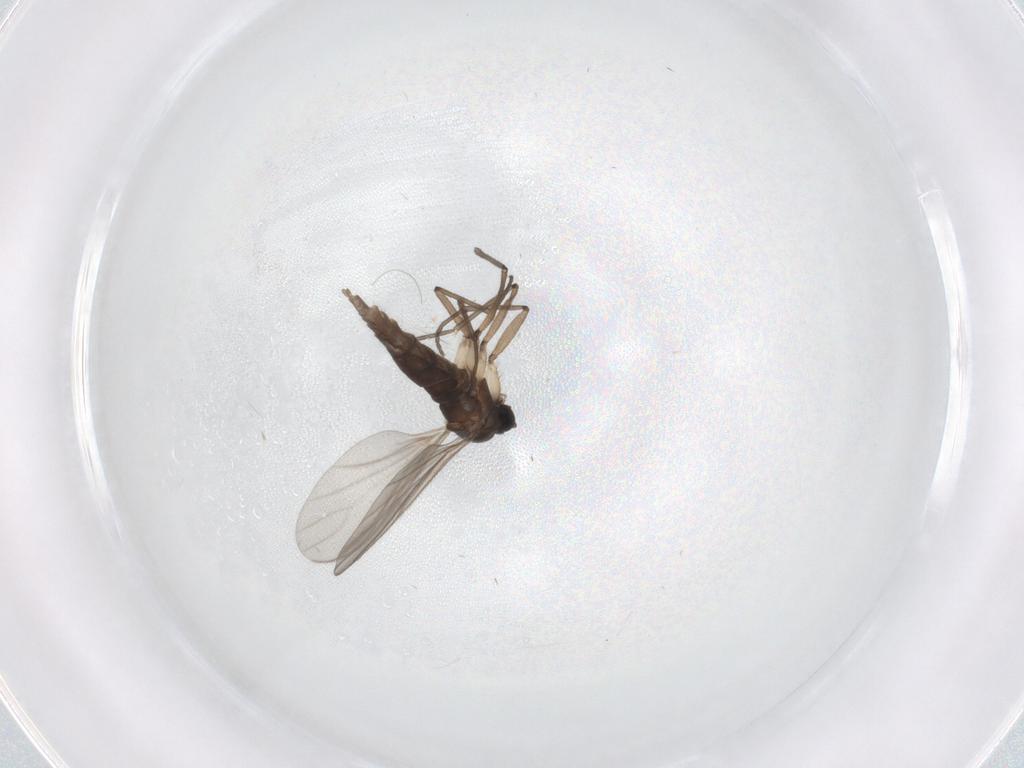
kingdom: Animalia
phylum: Arthropoda
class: Insecta
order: Diptera
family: Sciaridae
